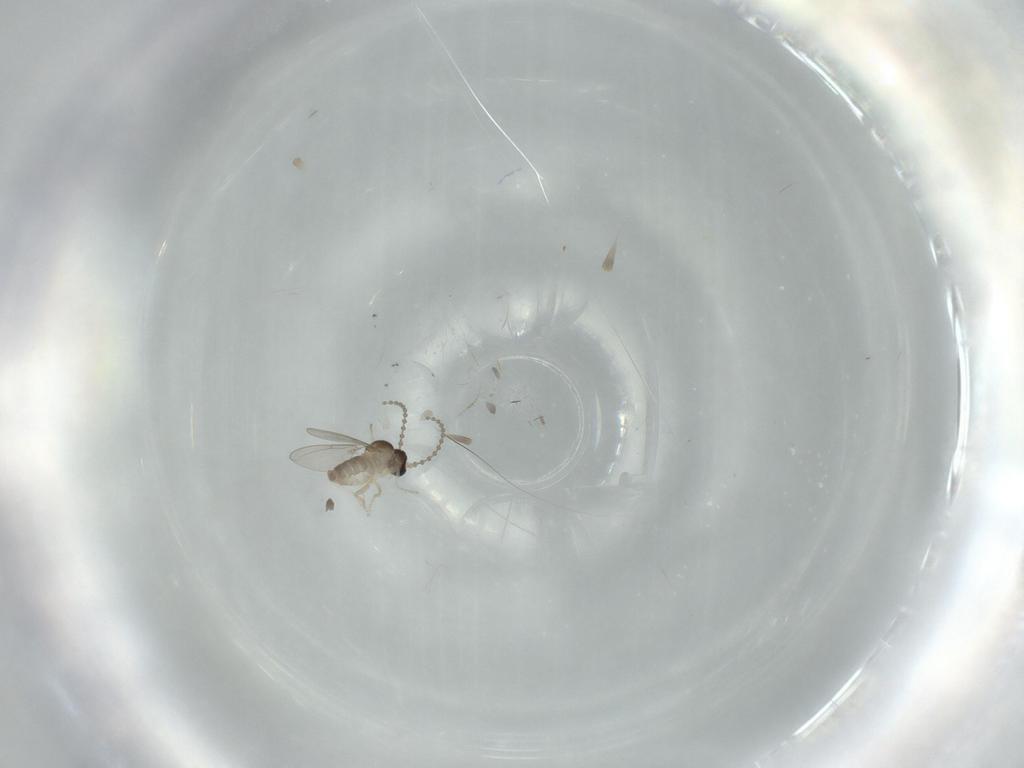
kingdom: Animalia
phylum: Arthropoda
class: Insecta
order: Diptera
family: Cecidomyiidae
